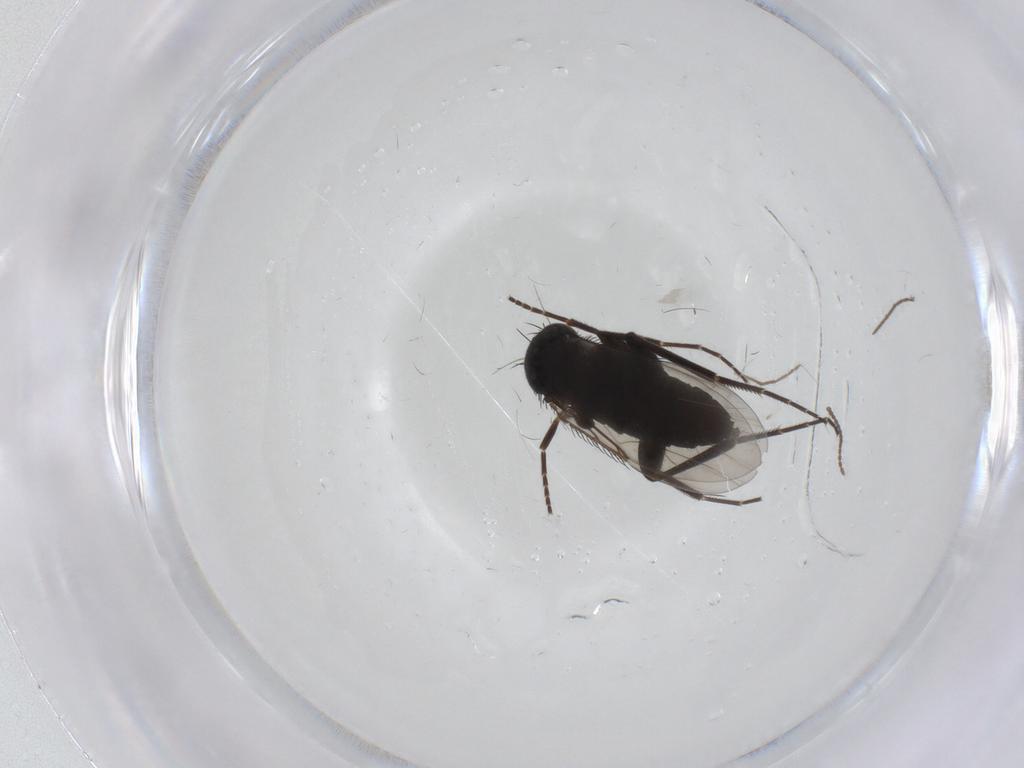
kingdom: Animalia
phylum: Arthropoda
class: Insecta
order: Diptera
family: Phoridae
